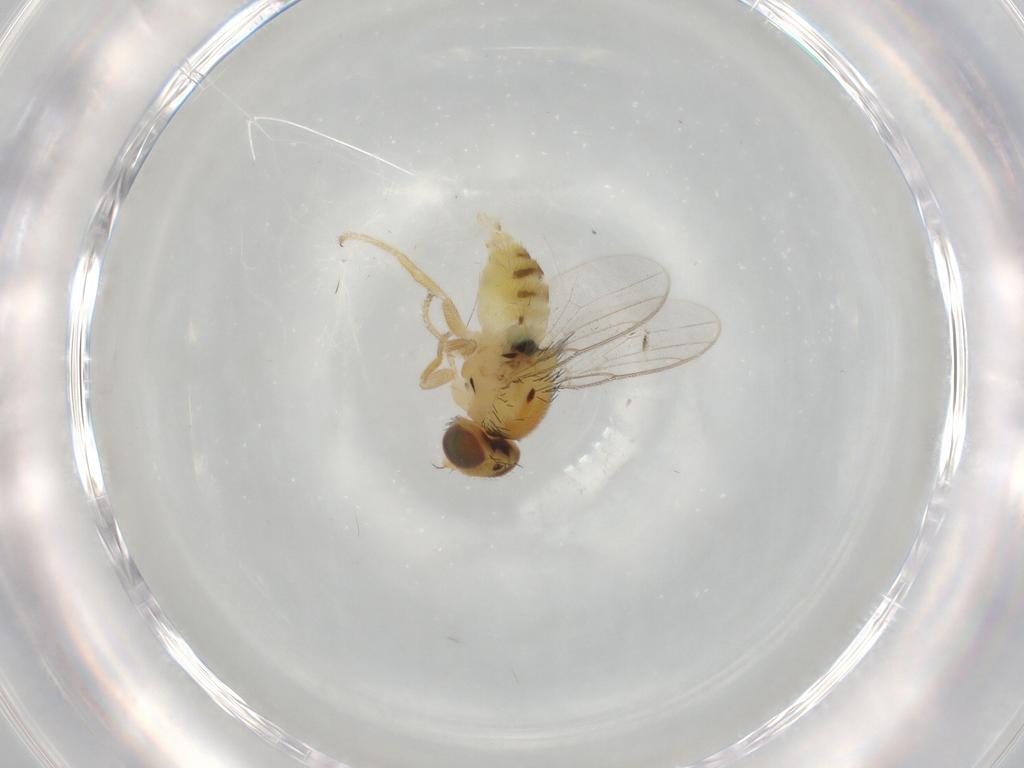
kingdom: Animalia
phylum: Arthropoda
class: Insecta
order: Diptera
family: Chloropidae
